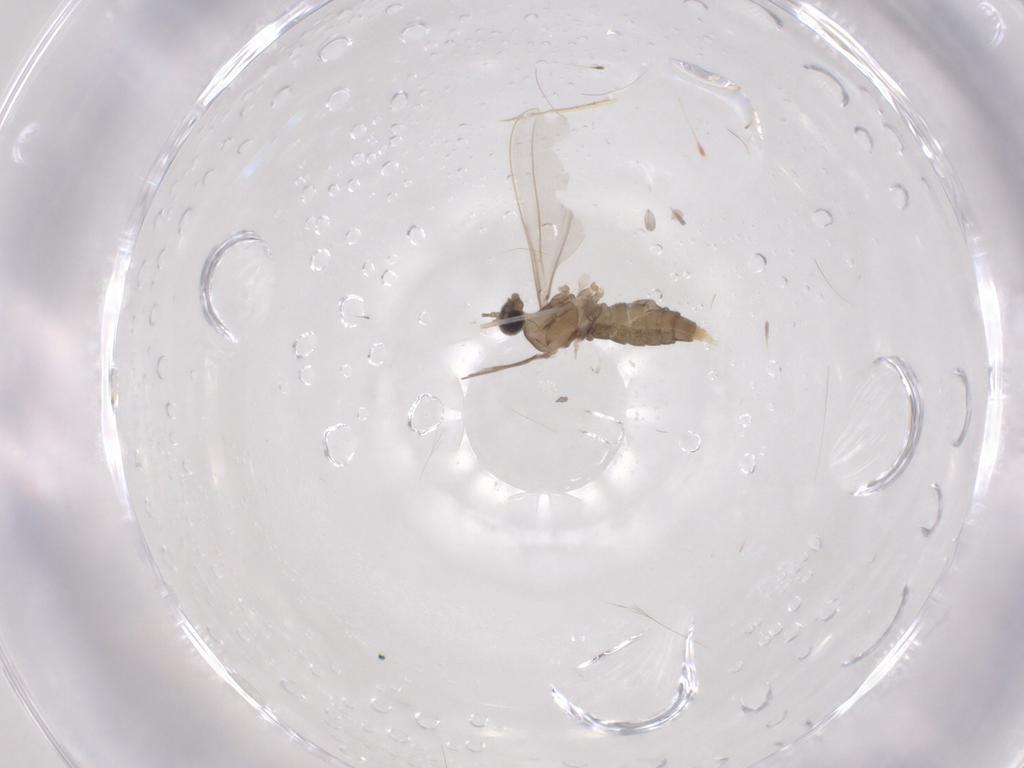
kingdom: Animalia
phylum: Arthropoda
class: Insecta
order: Diptera
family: Cecidomyiidae
